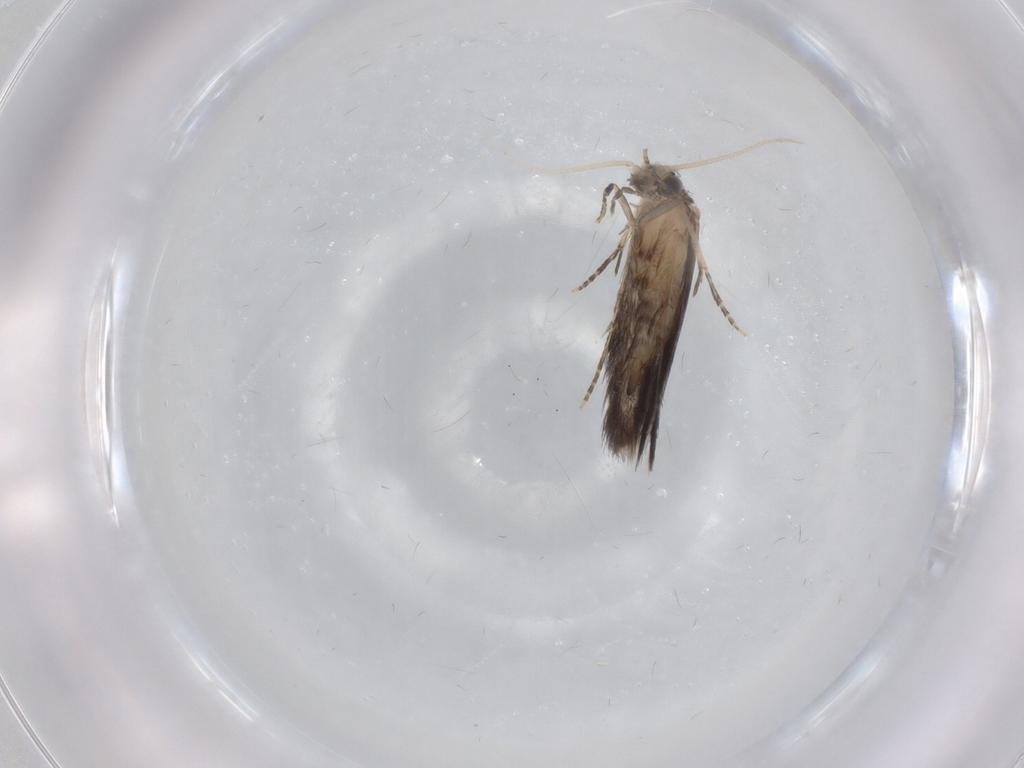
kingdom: Animalia
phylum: Arthropoda
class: Insecta
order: Trichoptera
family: Hydroptilidae
